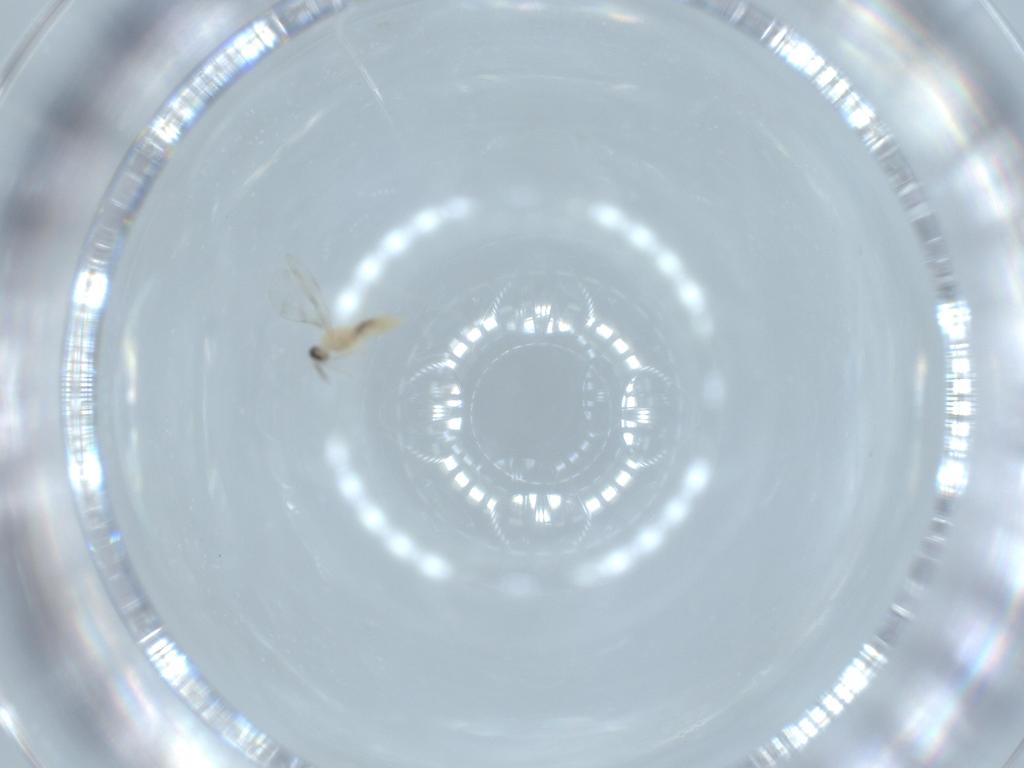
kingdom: Animalia
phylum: Arthropoda
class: Insecta
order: Diptera
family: Cecidomyiidae
